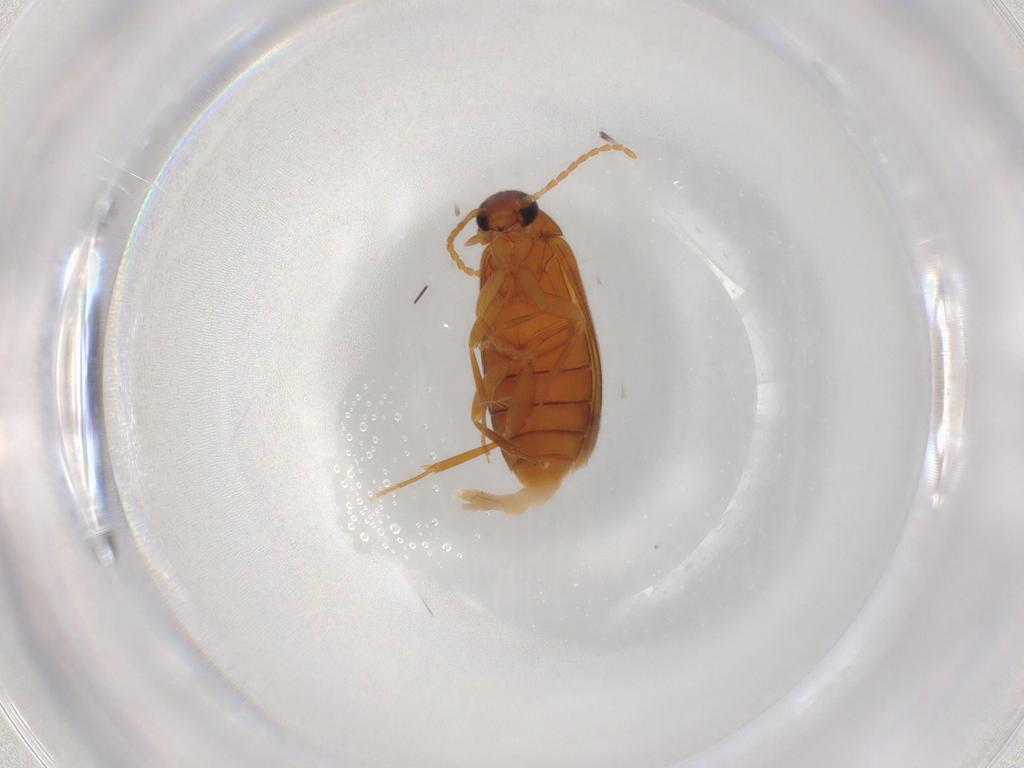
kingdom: Animalia
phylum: Arthropoda
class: Insecta
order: Coleoptera
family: Scraptiidae
